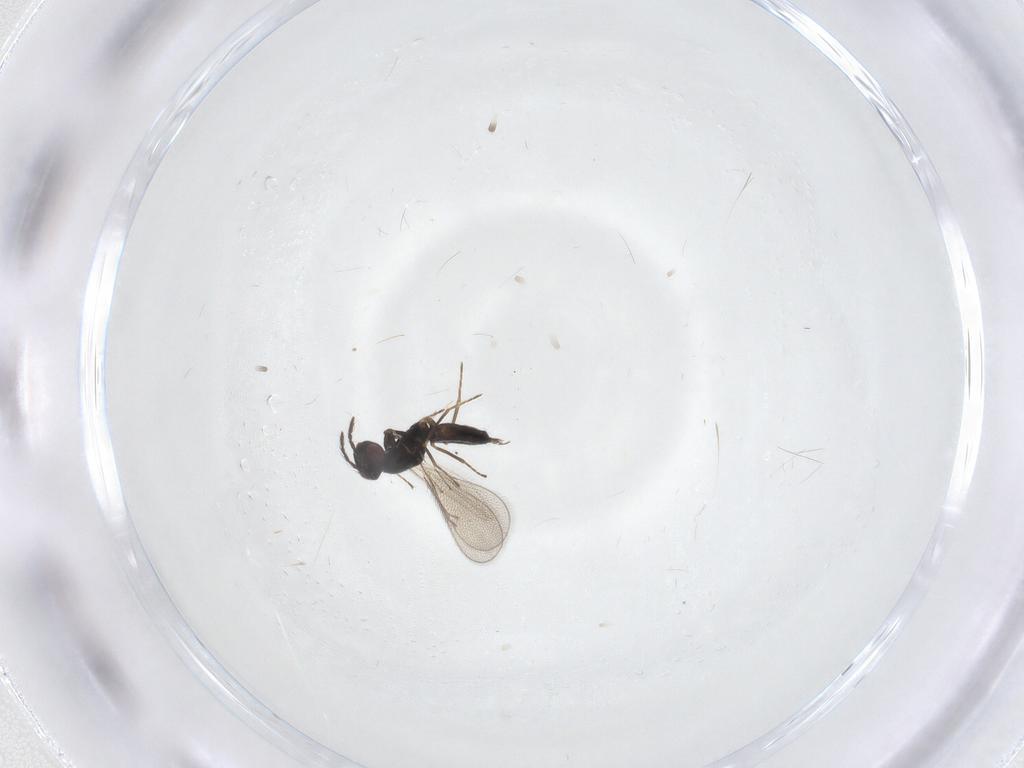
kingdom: Animalia
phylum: Arthropoda
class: Insecta
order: Hymenoptera
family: Eulophidae
